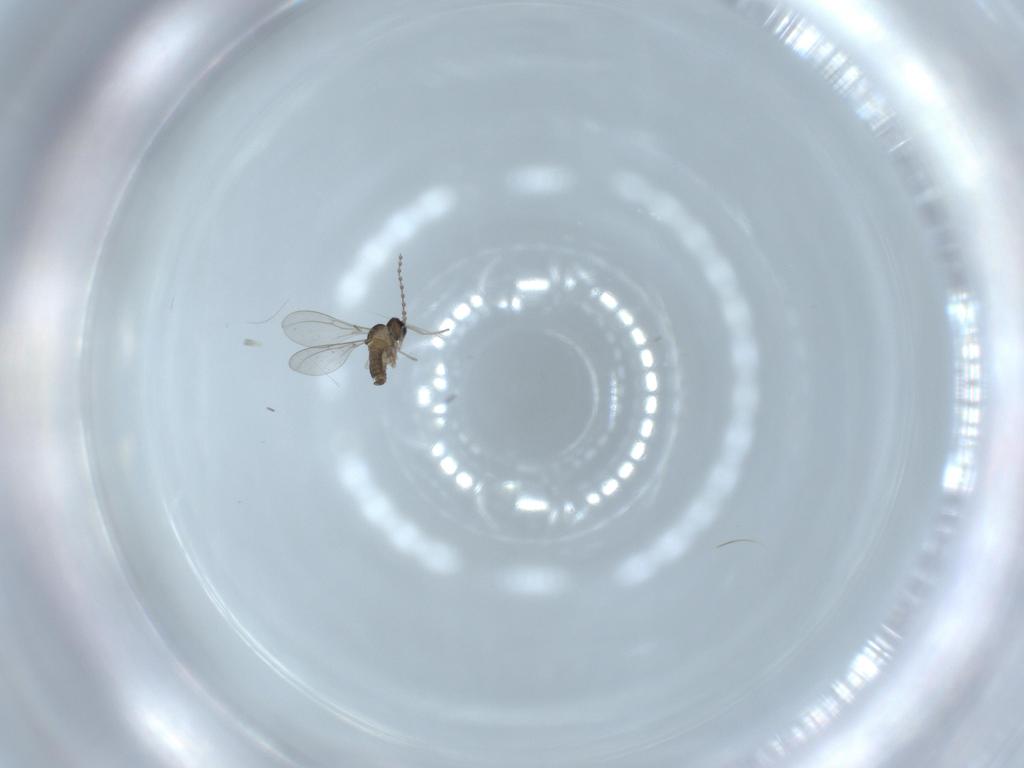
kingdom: Animalia
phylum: Arthropoda
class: Insecta
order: Diptera
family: Cecidomyiidae
